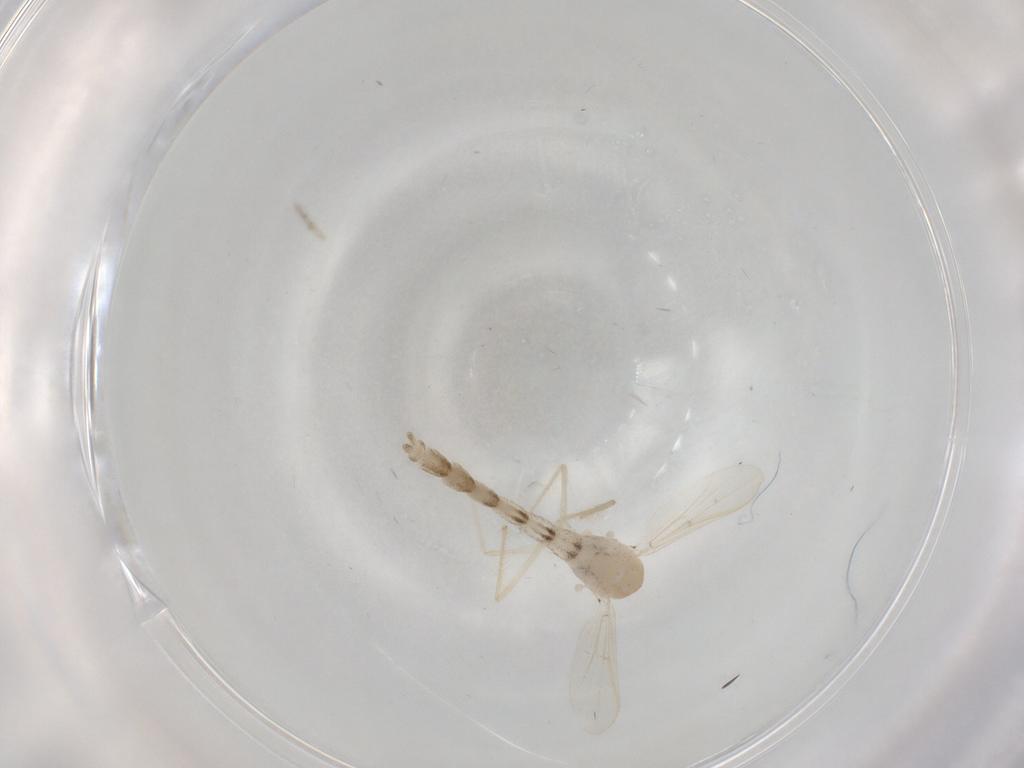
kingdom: Animalia
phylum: Arthropoda
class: Insecta
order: Diptera
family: Chironomidae
